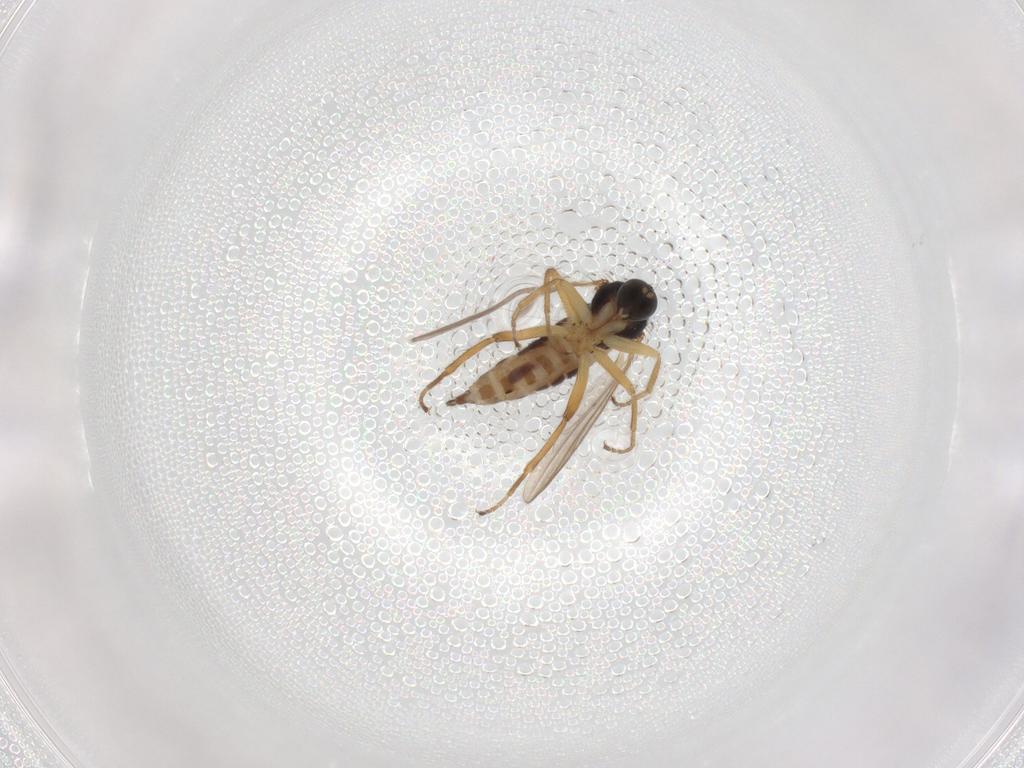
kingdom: Animalia
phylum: Arthropoda
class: Insecta
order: Diptera
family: Hybotidae
